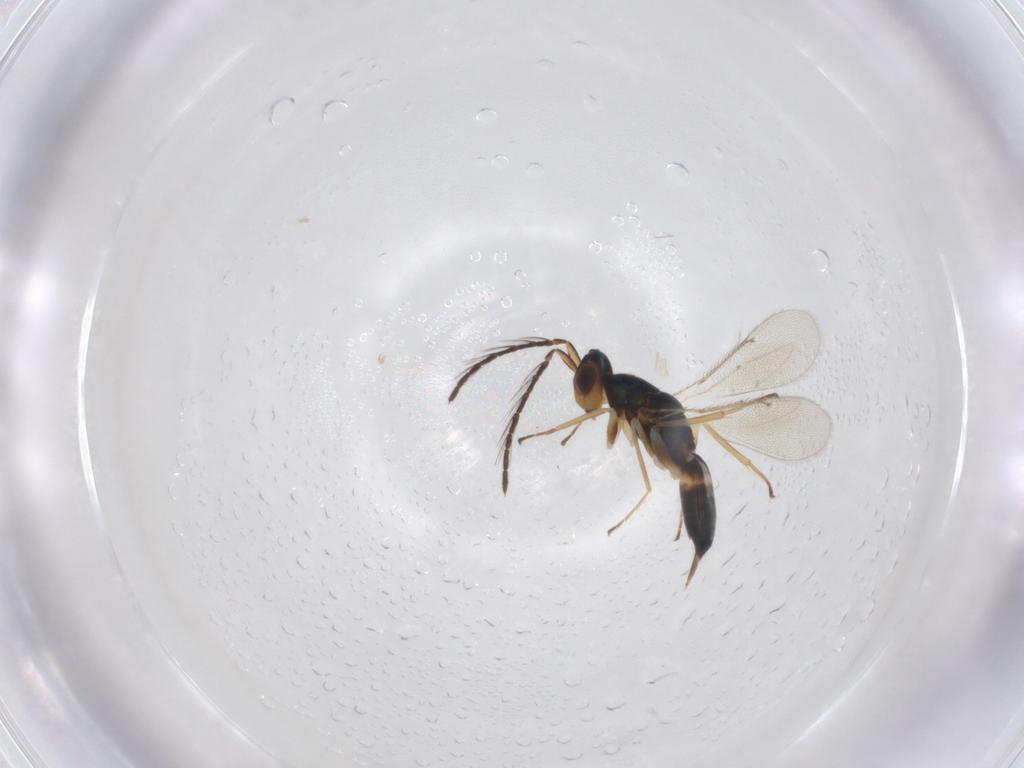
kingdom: Animalia
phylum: Arthropoda
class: Insecta
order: Hymenoptera
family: Eulophidae
